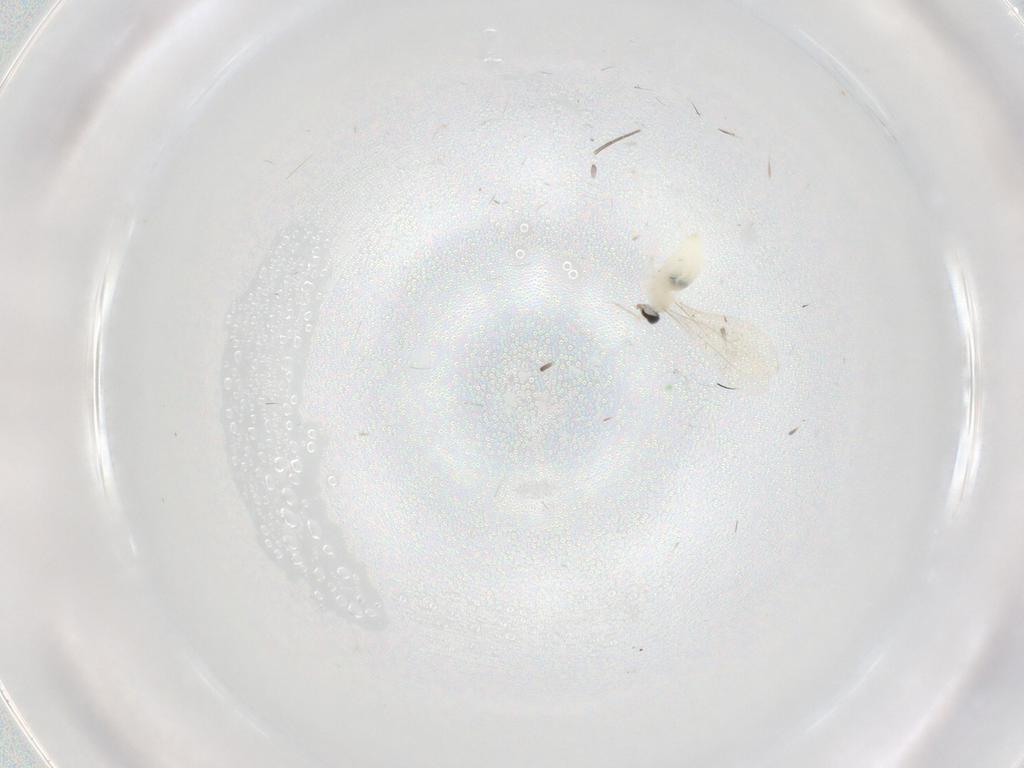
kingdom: Animalia
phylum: Arthropoda
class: Insecta
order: Diptera
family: Cecidomyiidae
